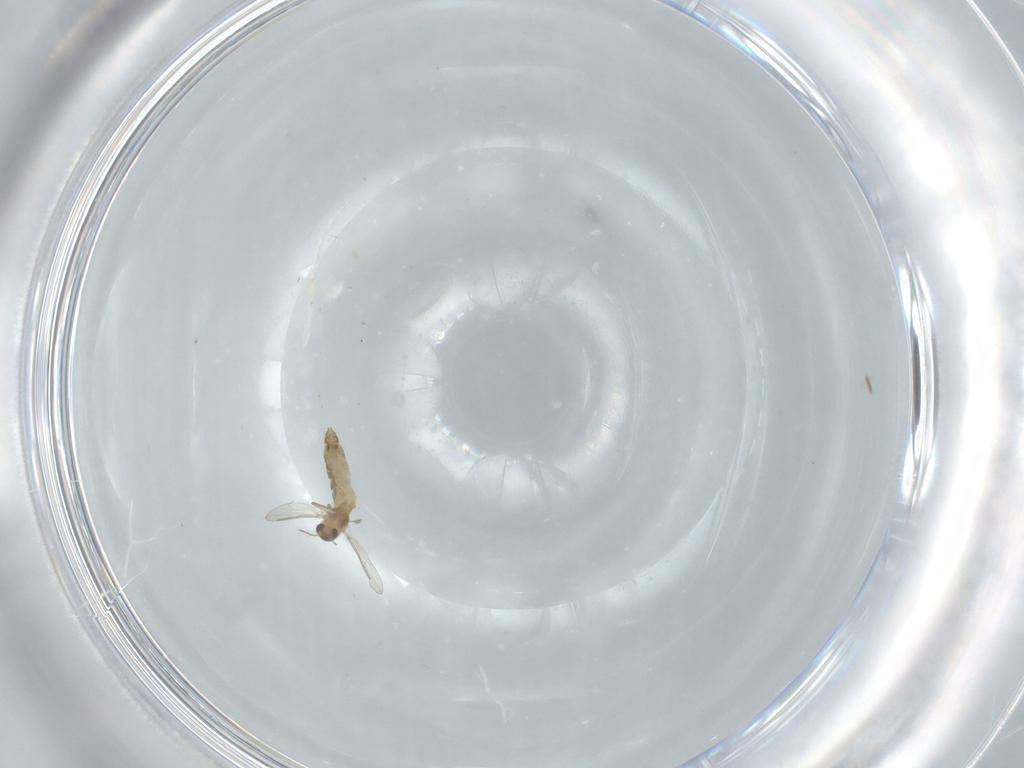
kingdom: Animalia
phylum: Arthropoda
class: Insecta
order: Diptera
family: Chironomidae
